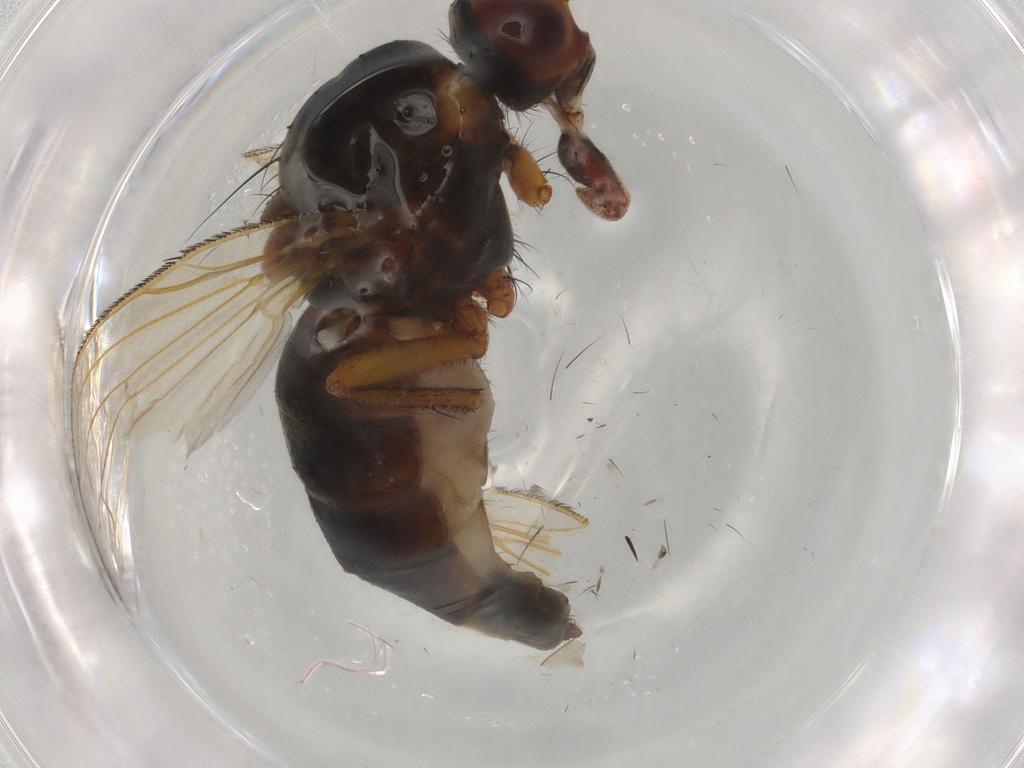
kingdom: Animalia
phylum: Arthropoda
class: Insecta
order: Diptera
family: Anthomyiidae
